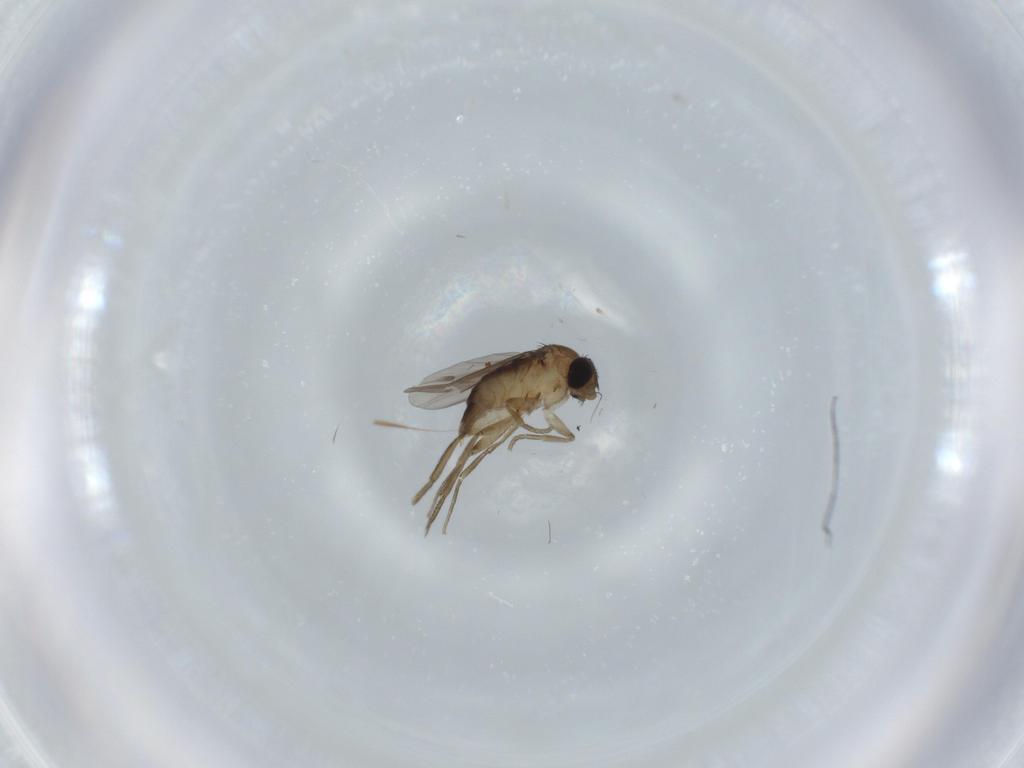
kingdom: Animalia
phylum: Arthropoda
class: Insecta
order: Diptera
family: Phoridae
